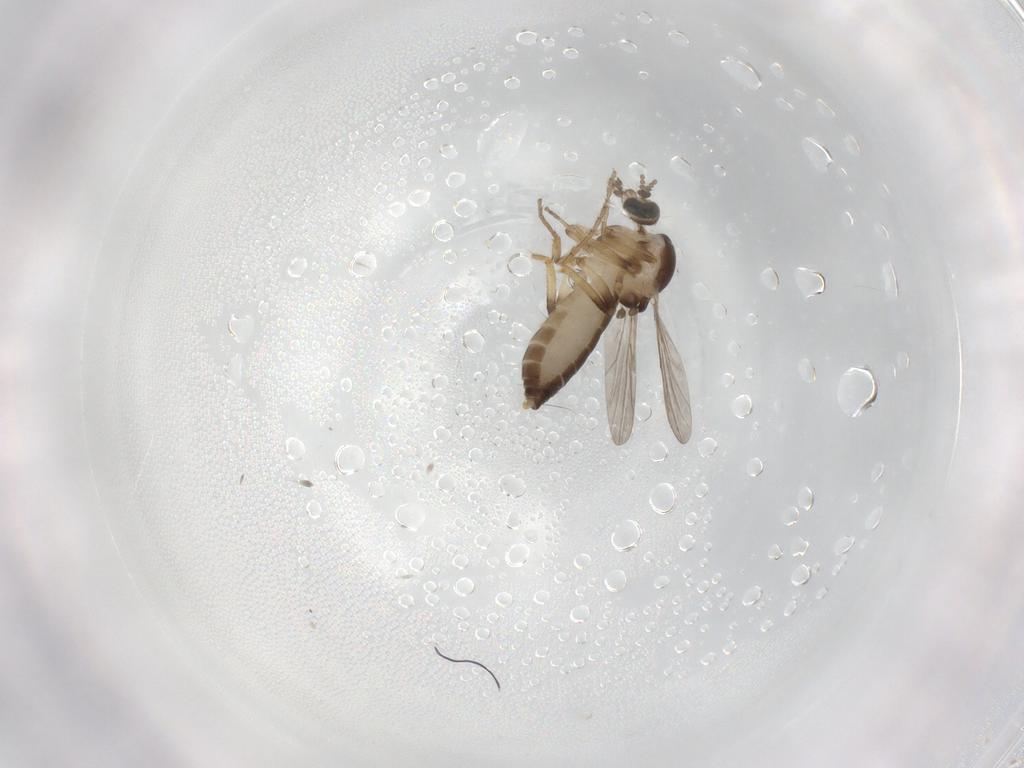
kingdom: Animalia
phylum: Arthropoda
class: Insecta
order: Diptera
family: Ceratopogonidae
